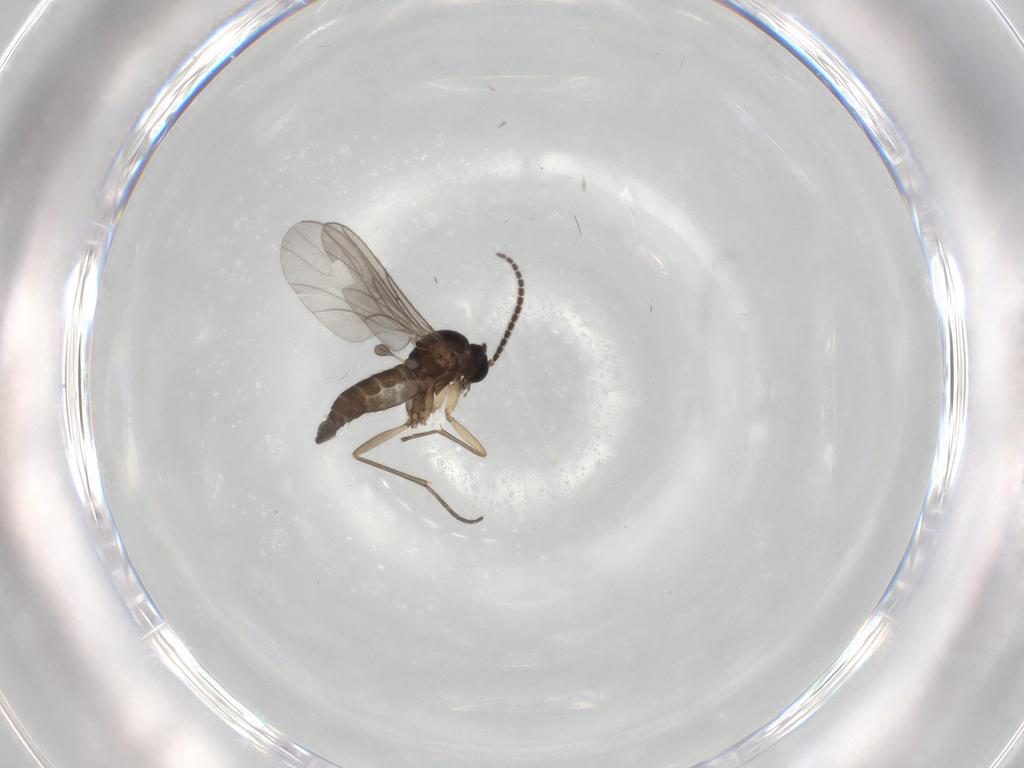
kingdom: Animalia
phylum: Arthropoda
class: Insecta
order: Diptera
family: Sciaridae
